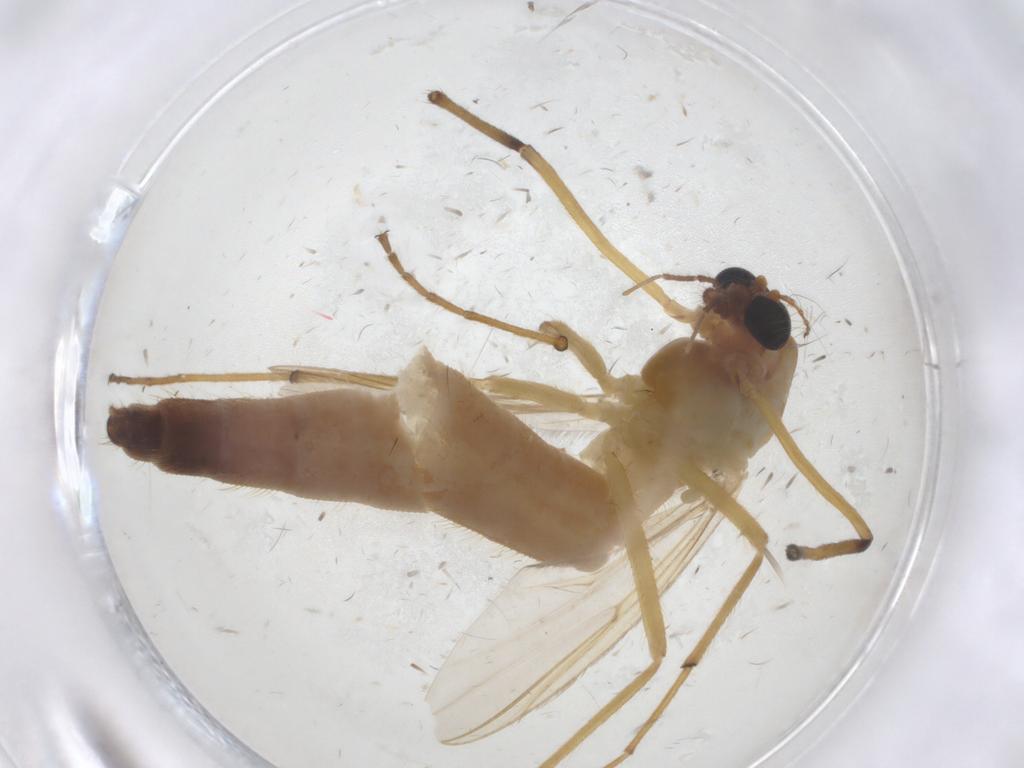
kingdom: Animalia
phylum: Arthropoda
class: Insecta
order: Diptera
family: Chironomidae
